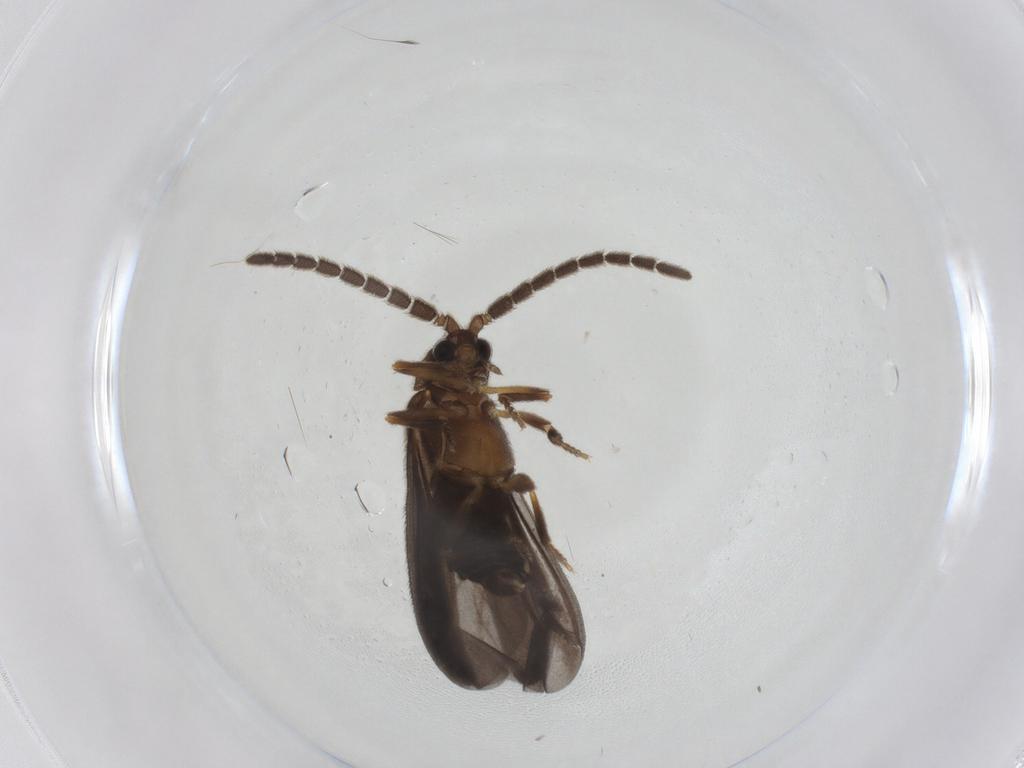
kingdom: Animalia
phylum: Arthropoda
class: Insecta
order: Coleoptera
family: Lycidae
